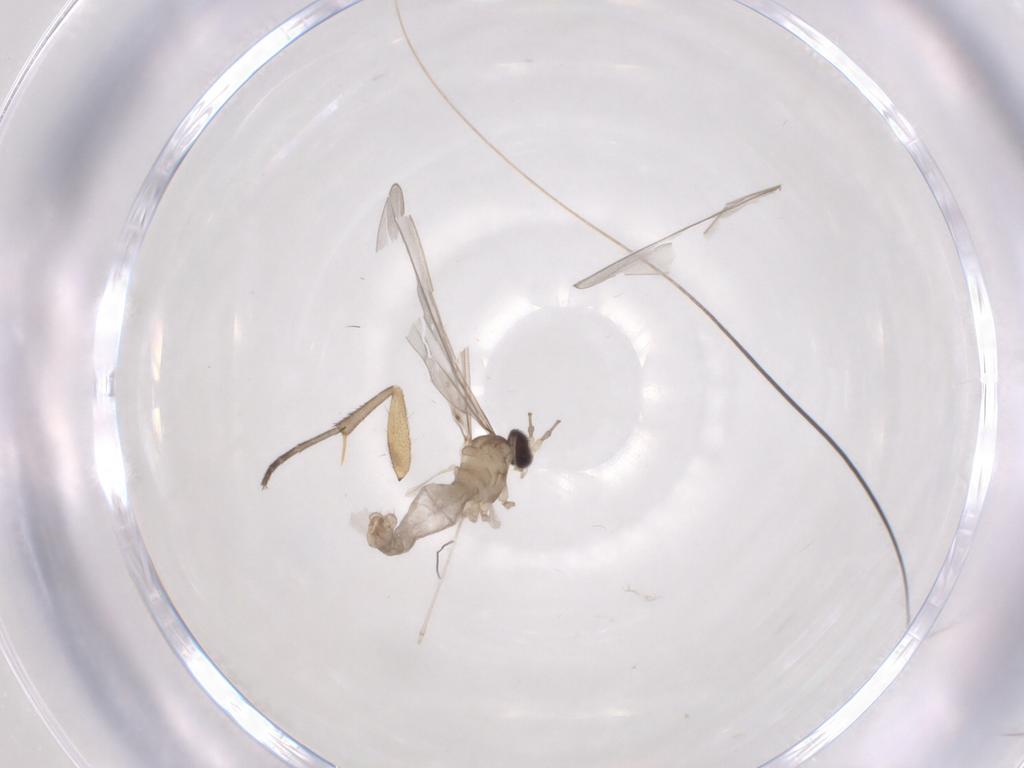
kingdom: Animalia
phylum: Arthropoda
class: Insecta
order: Diptera
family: Cecidomyiidae
